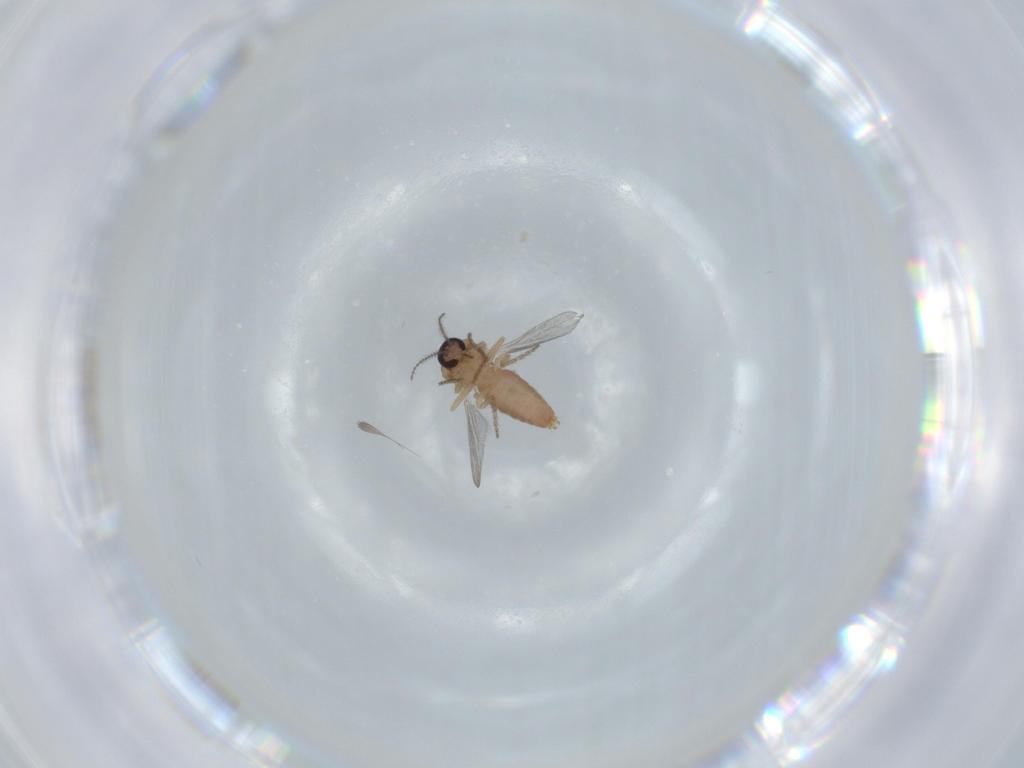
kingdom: Animalia
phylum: Arthropoda
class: Insecta
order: Diptera
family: Ceratopogonidae
